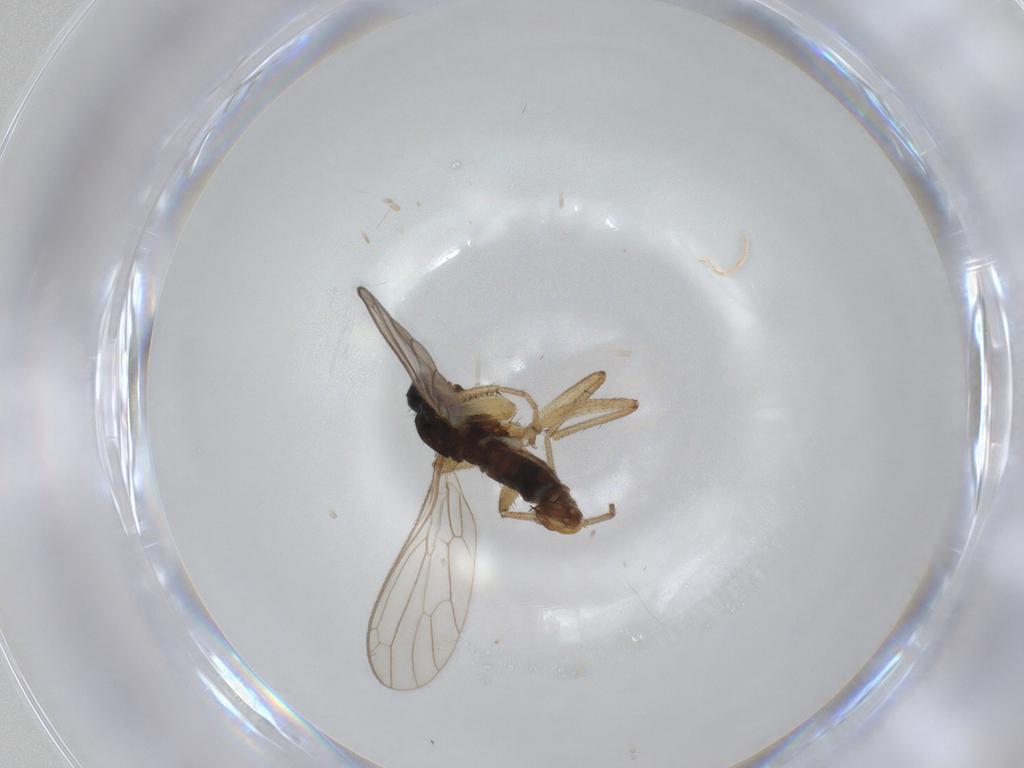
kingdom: Animalia
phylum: Arthropoda
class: Insecta
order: Diptera
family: Empididae
